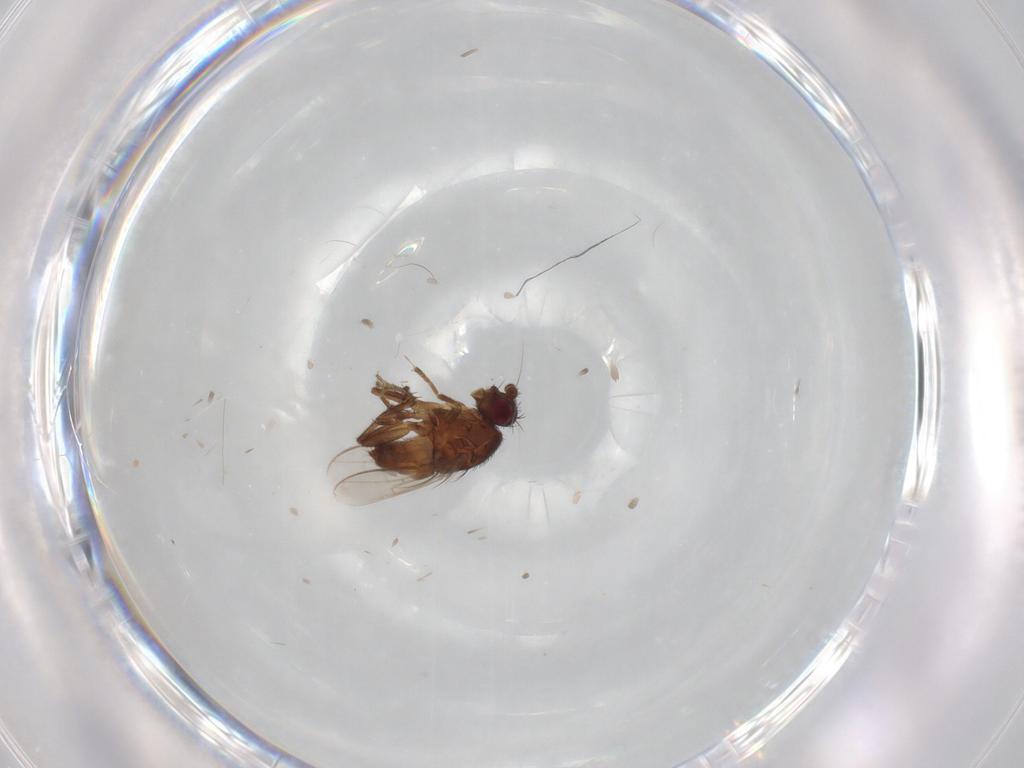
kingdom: Animalia
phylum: Arthropoda
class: Insecta
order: Diptera
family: Sphaeroceridae
